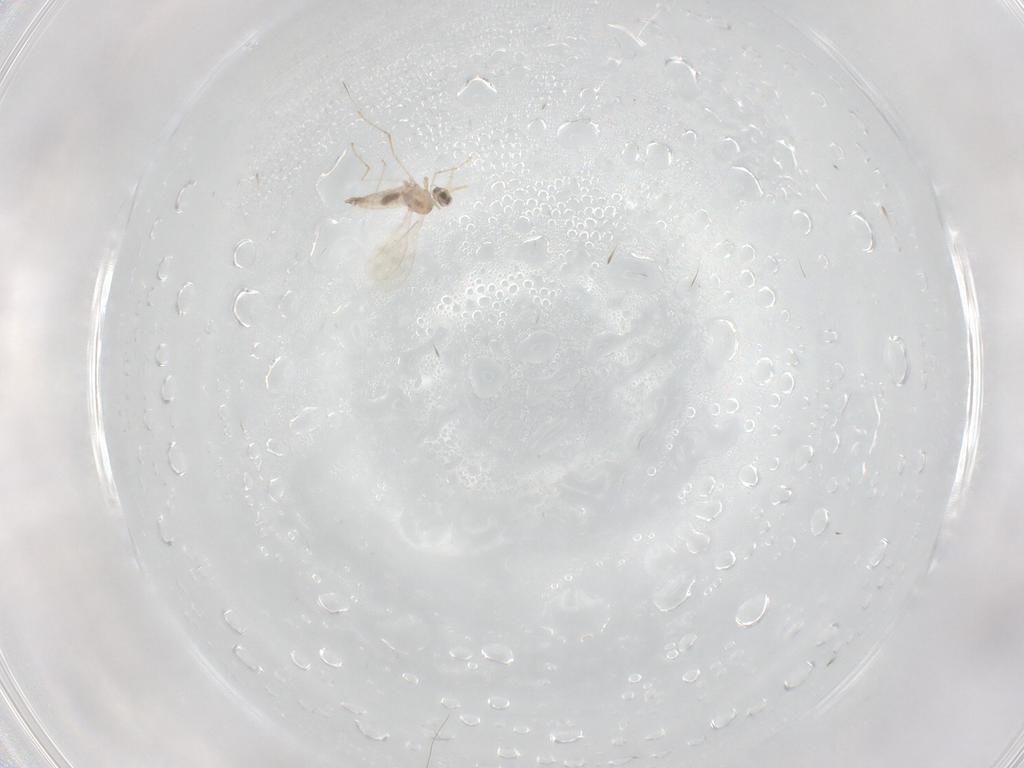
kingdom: Animalia
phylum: Arthropoda
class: Insecta
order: Diptera
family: Cecidomyiidae
